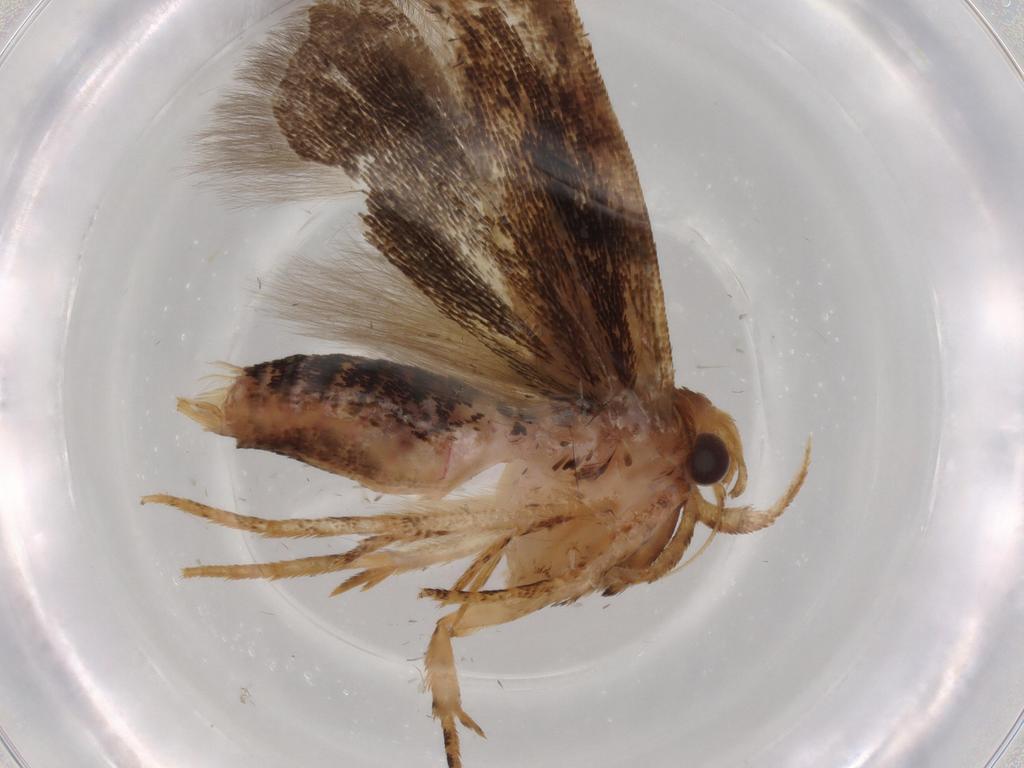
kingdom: Animalia
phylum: Arthropoda
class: Insecta
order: Lepidoptera
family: Gelechiidae
